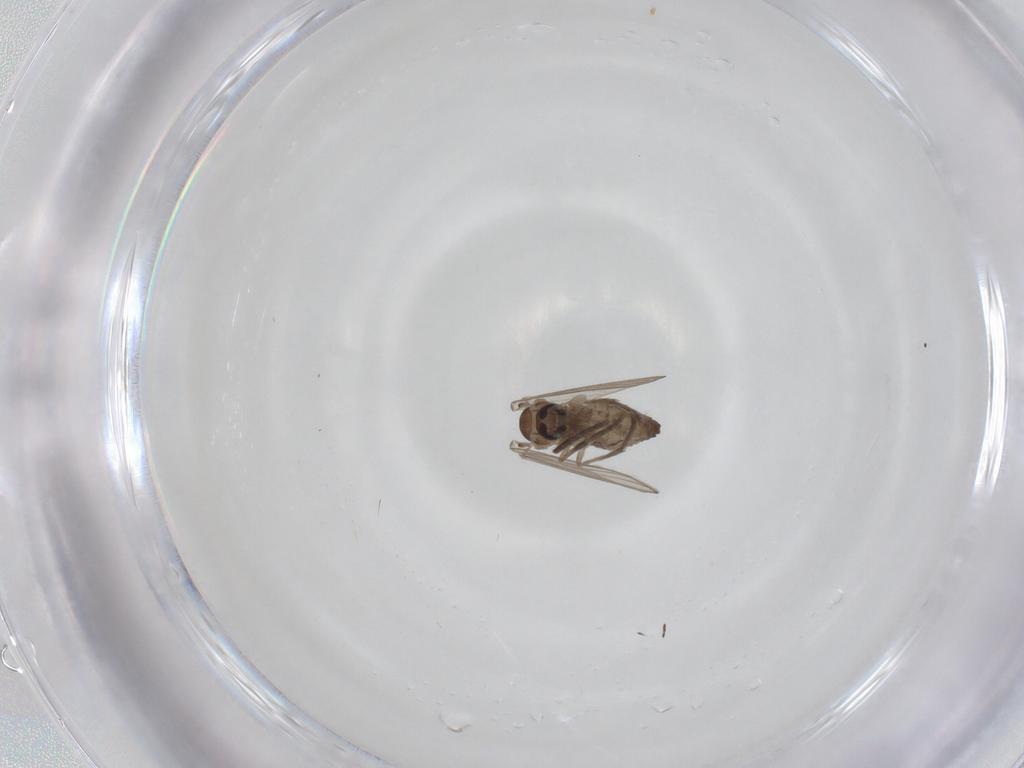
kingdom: Animalia
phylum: Arthropoda
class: Insecta
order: Diptera
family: Psychodidae
